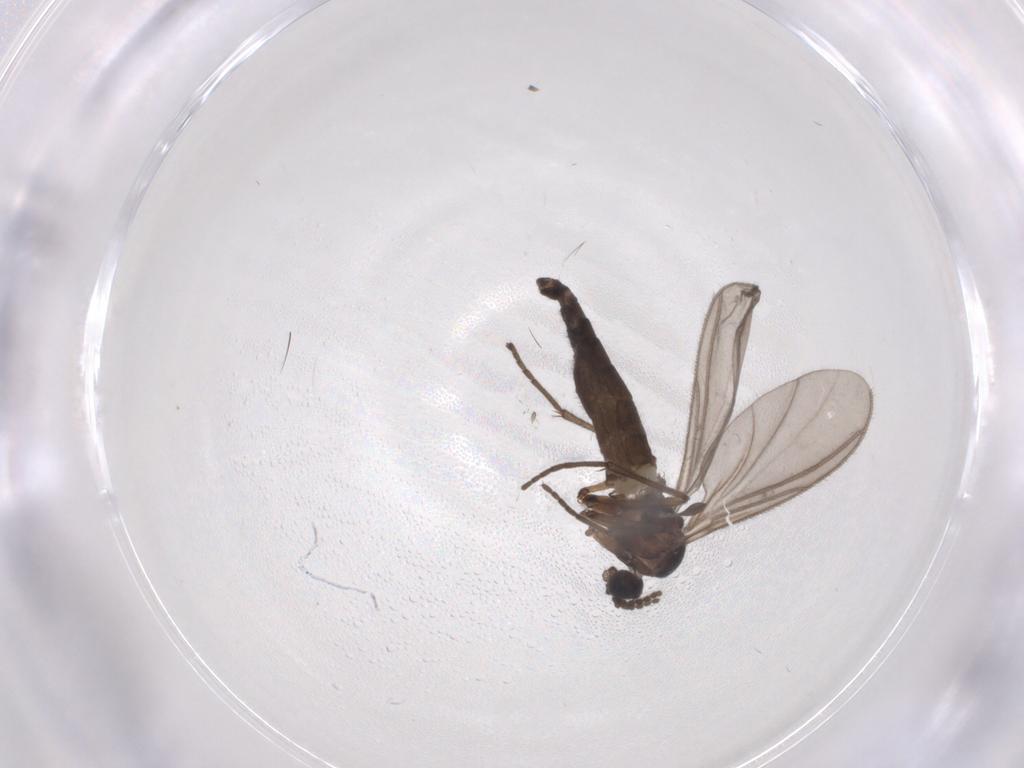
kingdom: Animalia
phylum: Arthropoda
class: Insecta
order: Diptera
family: Sciaridae
